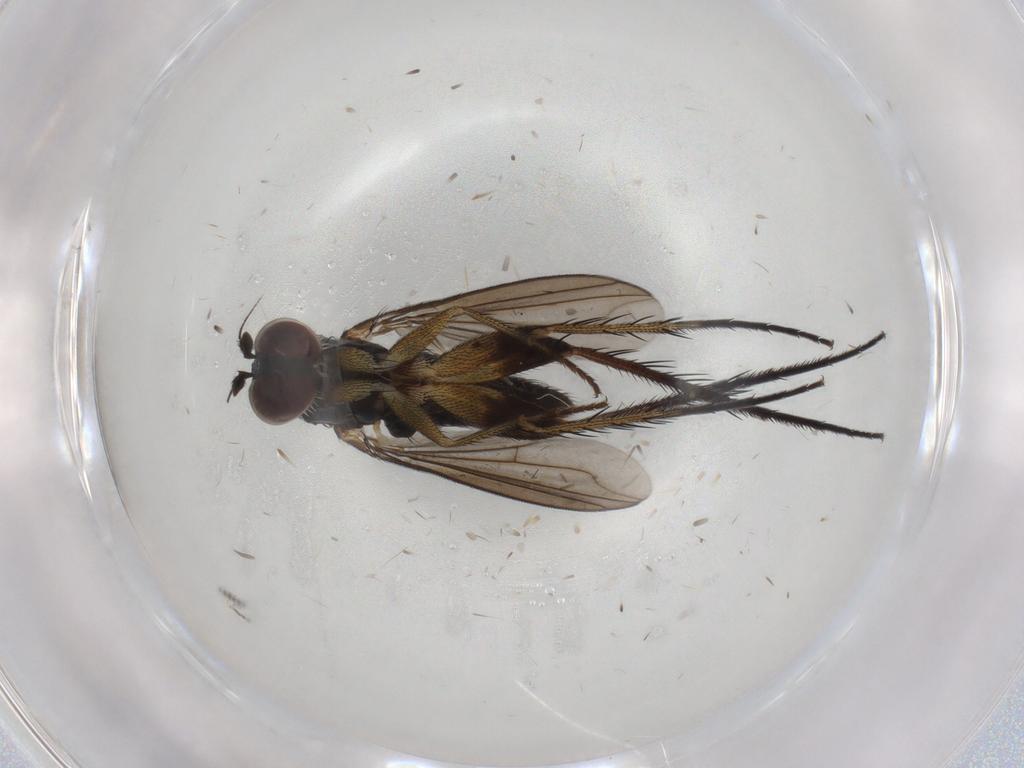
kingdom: Animalia
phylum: Arthropoda
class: Insecta
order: Diptera
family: Dolichopodidae
